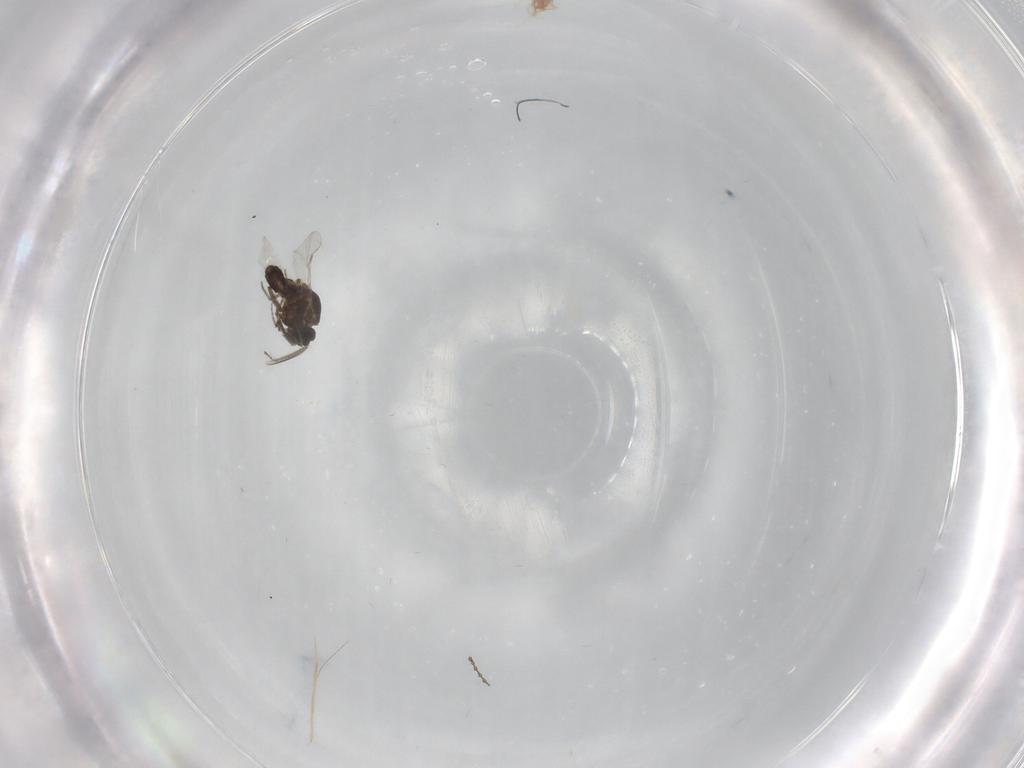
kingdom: Animalia
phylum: Arthropoda
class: Insecta
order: Diptera
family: Ceratopogonidae
